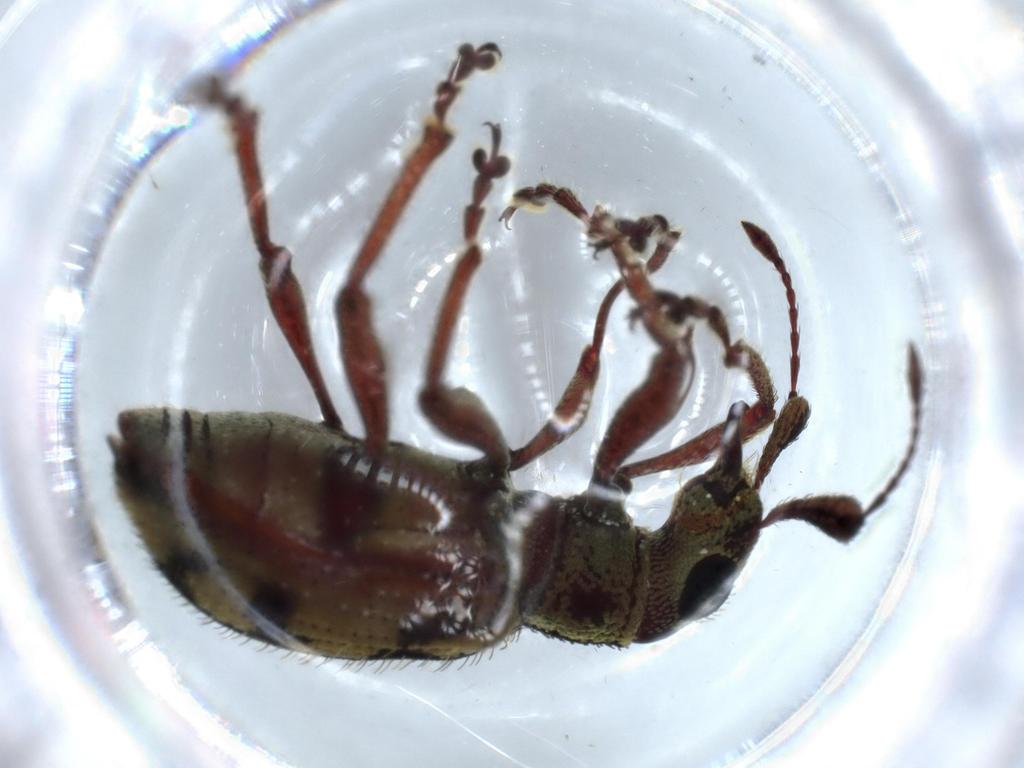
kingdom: Animalia
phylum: Arthropoda
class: Insecta
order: Coleoptera
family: Curculionidae
